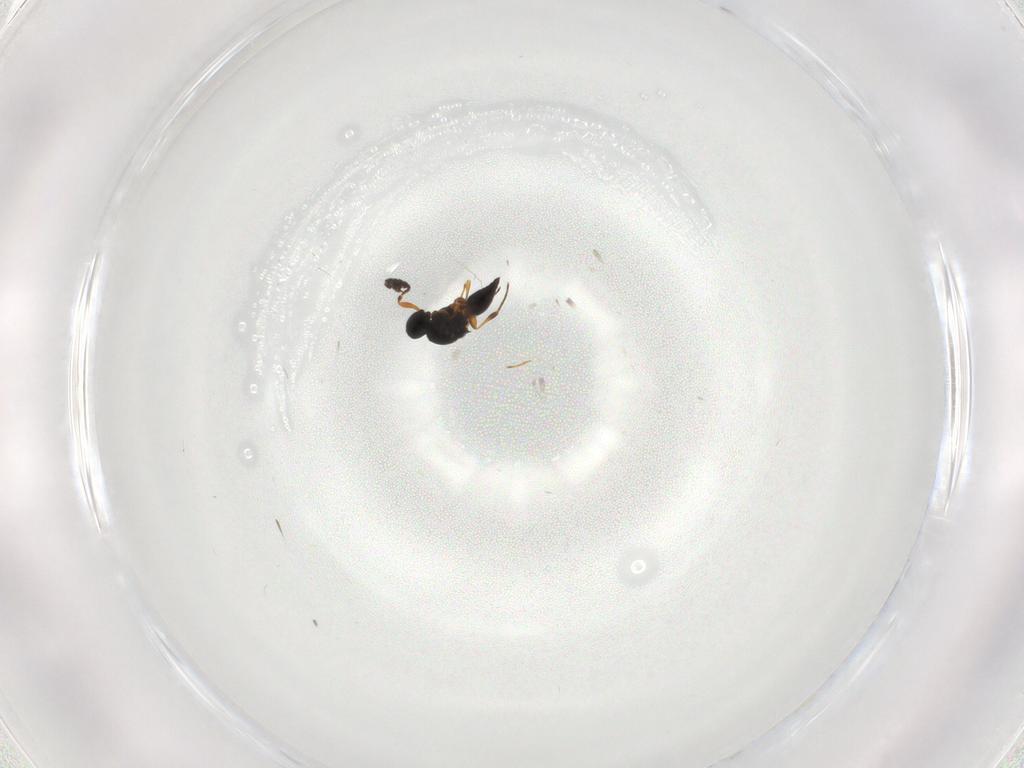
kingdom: Animalia
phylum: Arthropoda
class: Insecta
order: Hymenoptera
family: Platygastridae
